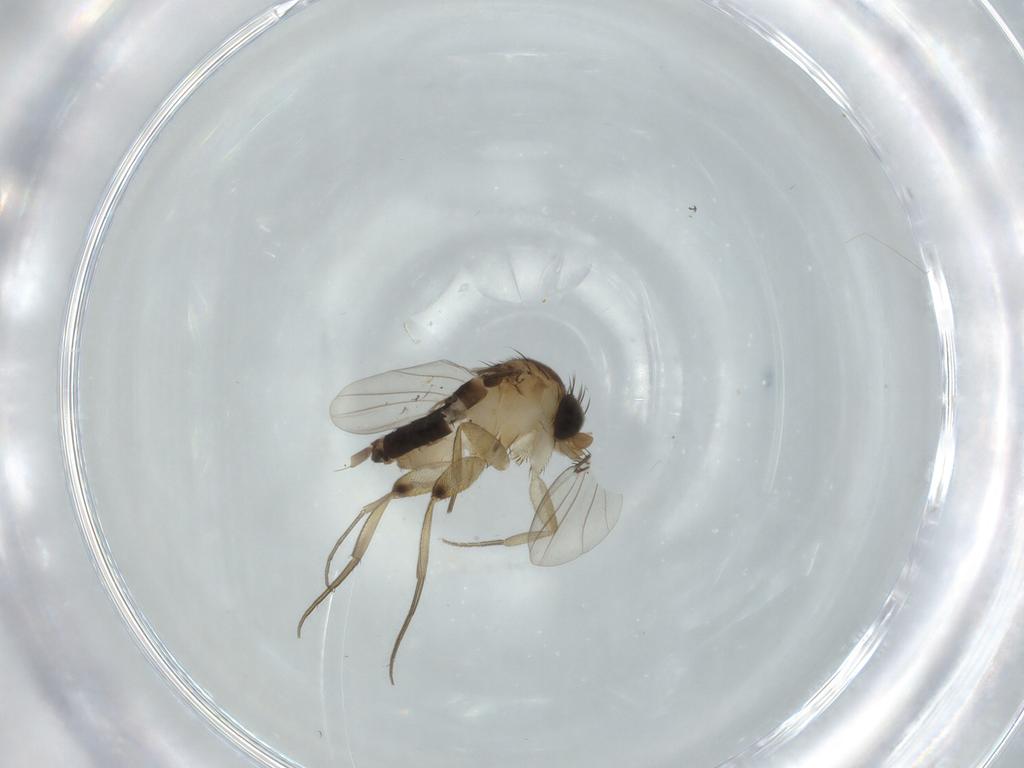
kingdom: Animalia
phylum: Arthropoda
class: Insecta
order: Diptera
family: Phoridae
